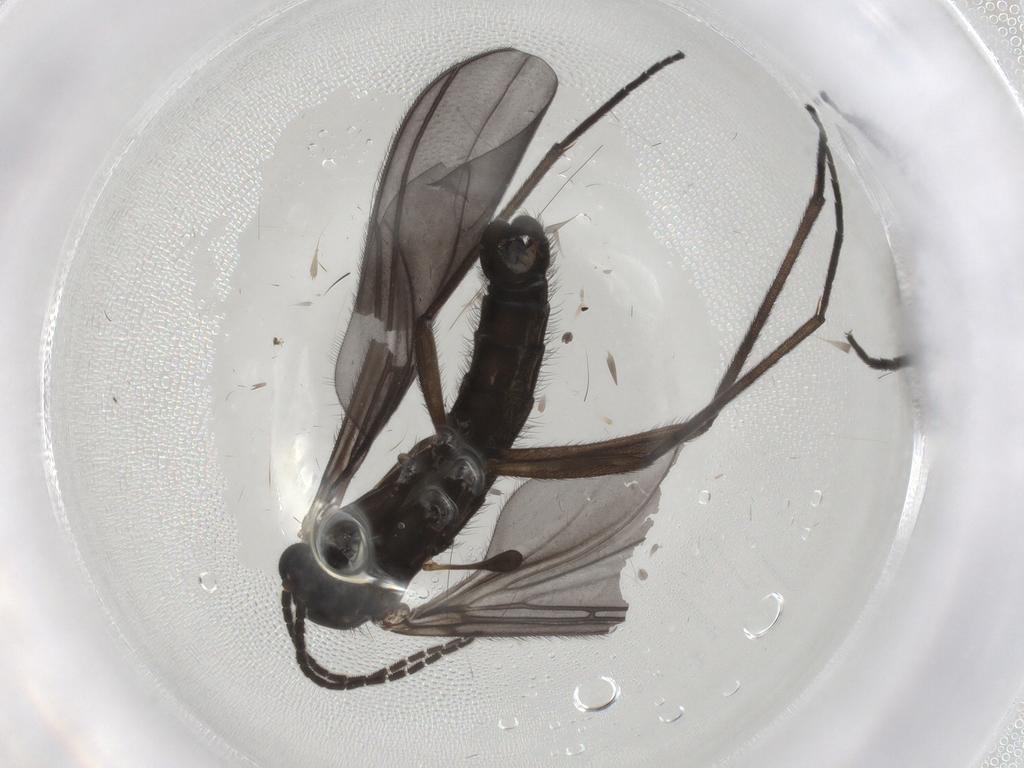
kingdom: Animalia
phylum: Arthropoda
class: Insecta
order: Diptera
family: Sciaridae
